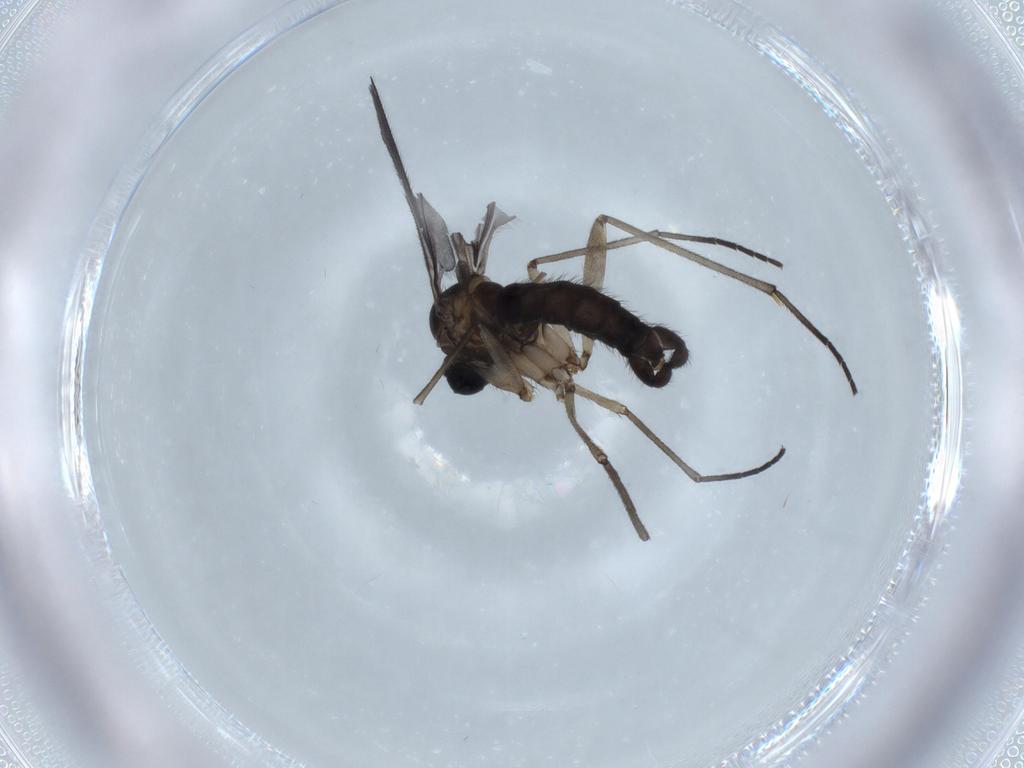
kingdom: Animalia
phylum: Arthropoda
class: Insecta
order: Diptera
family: Sciaridae
